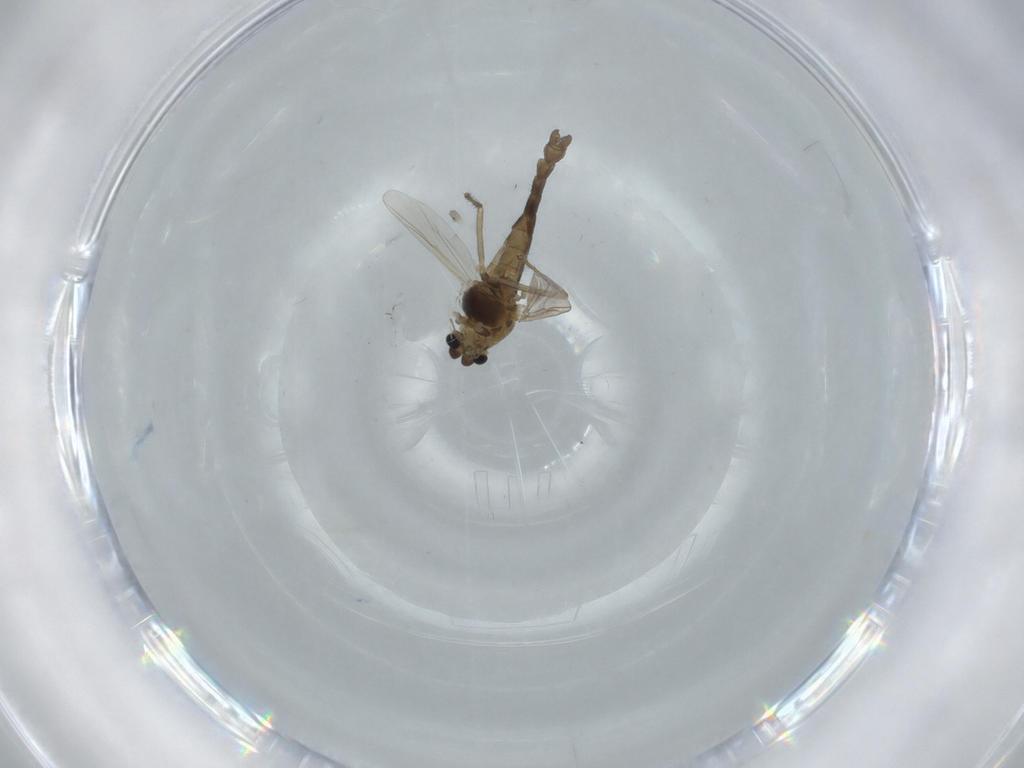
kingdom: Animalia
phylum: Arthropoda
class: Insecta
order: Diptera
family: Chironomidae
